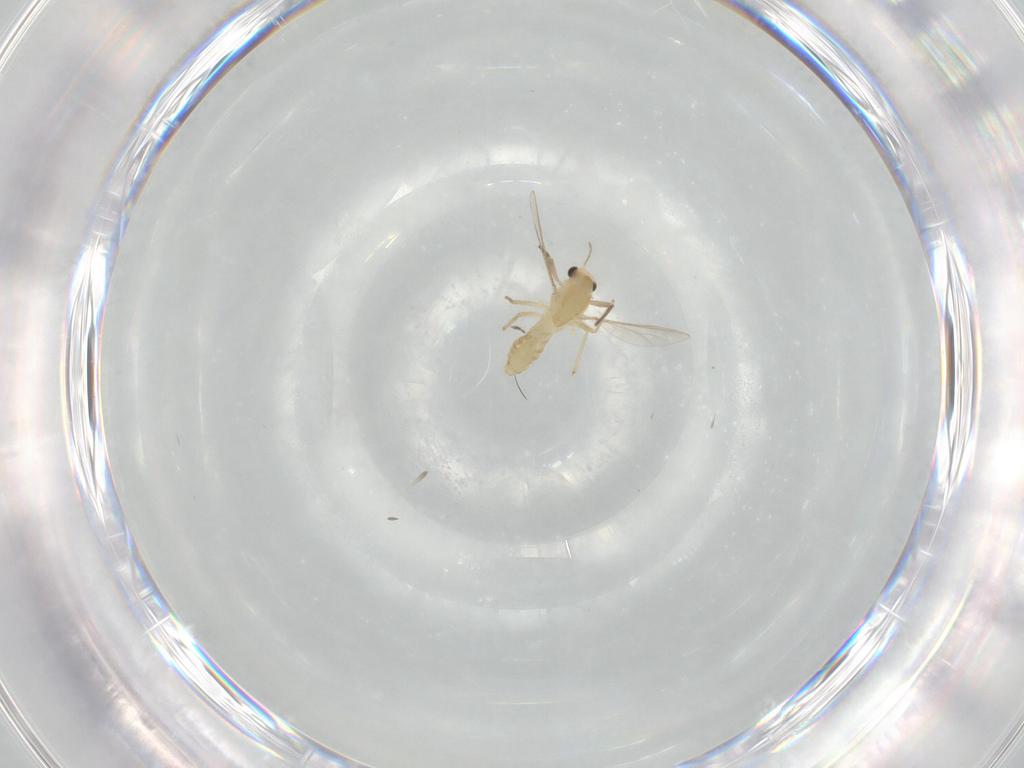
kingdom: Animalia
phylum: Arthropoda
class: Insecta
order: Diptera
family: Chironomidae
